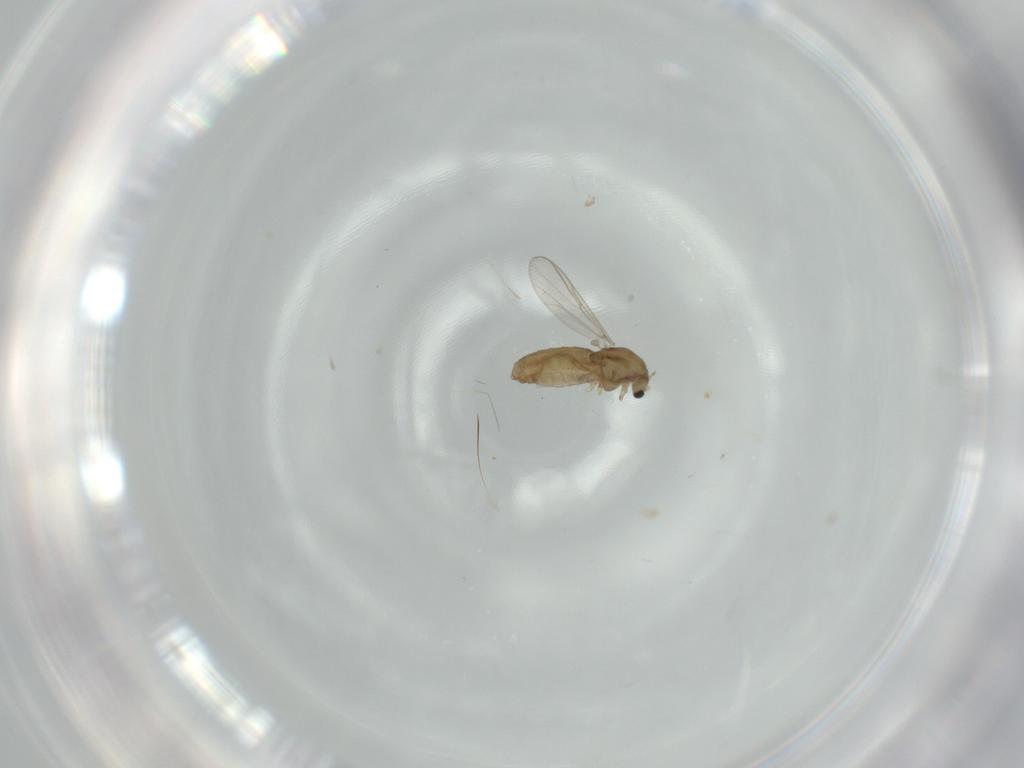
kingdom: Animalia
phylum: Arthropoda
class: Insecta
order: Diptera
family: Chironomidae
